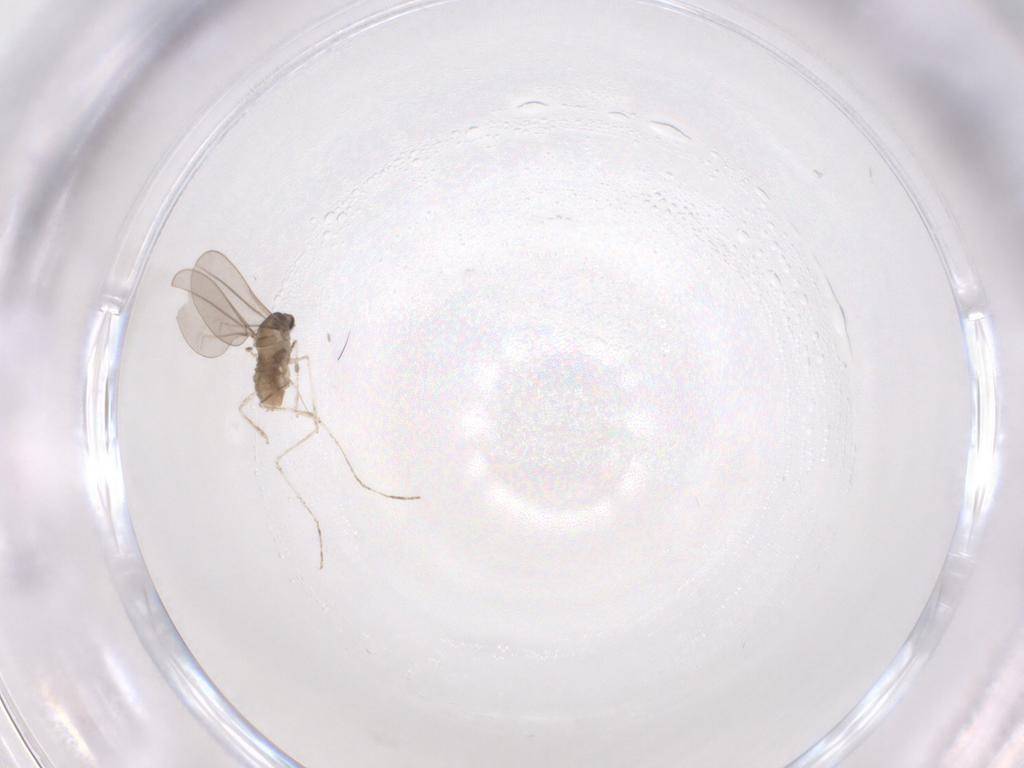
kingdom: Animalia
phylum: Arthropoda
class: Insecta
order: Diptera
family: Cecidomyiidae
